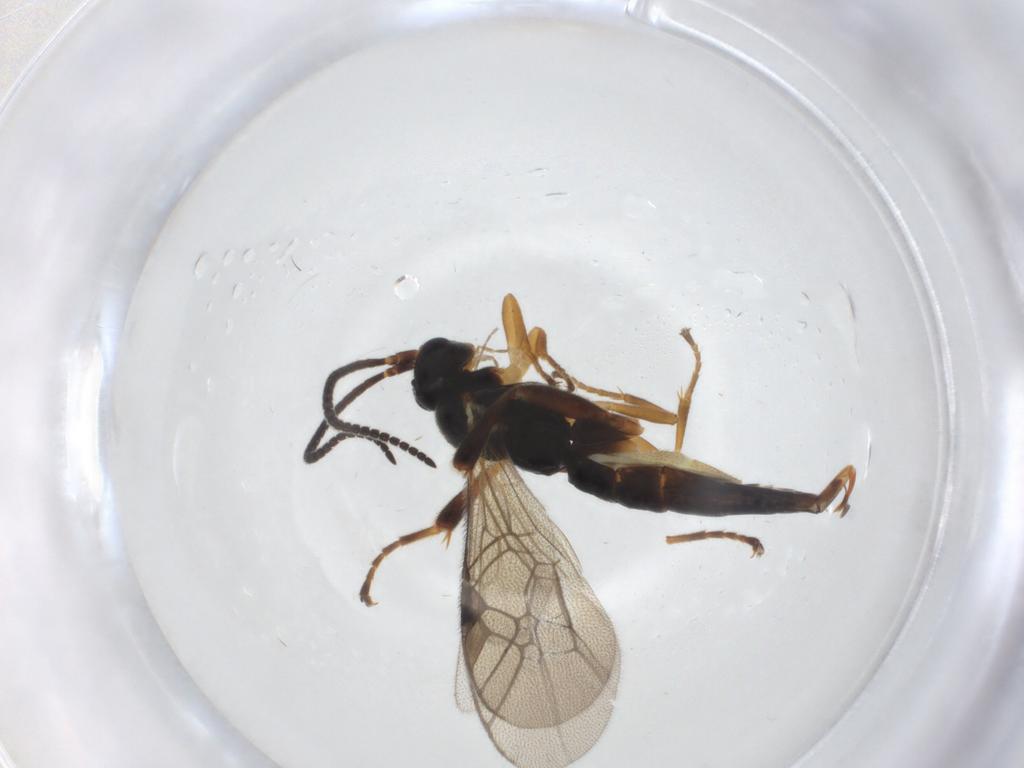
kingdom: Animalia
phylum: Arthropoda
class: Insecta
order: Hymenoptera
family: Ichneumonidae
